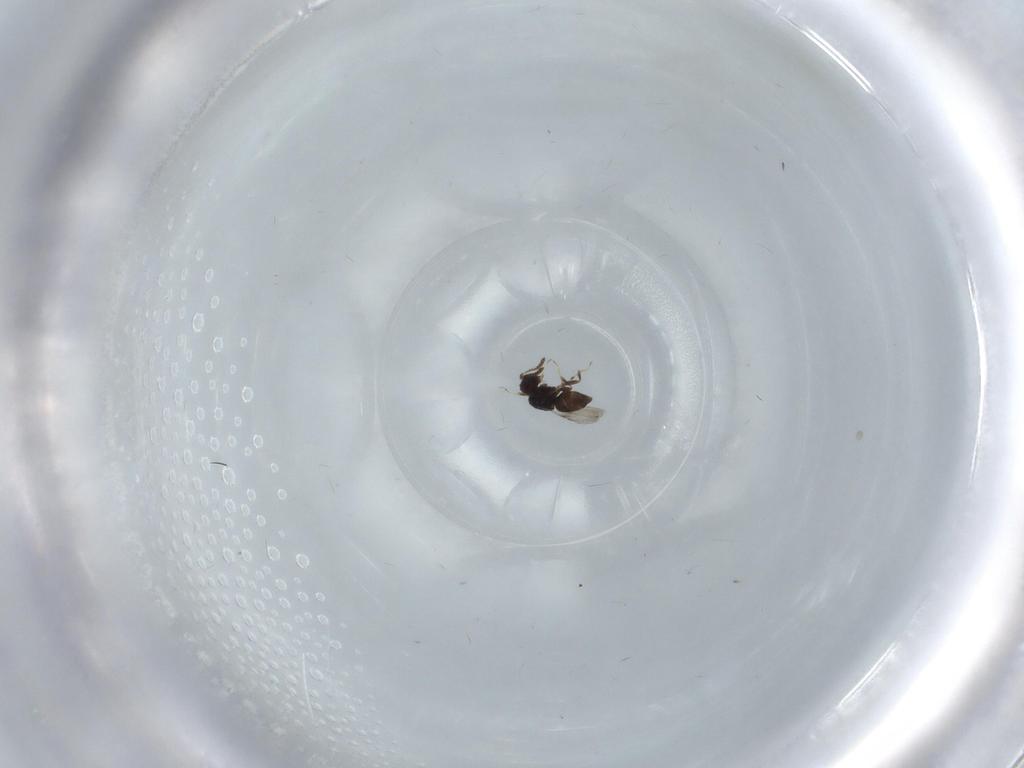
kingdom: Animalia
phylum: Arthropoda
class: Insecta
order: Hymenoptera
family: Ceraphronidae
